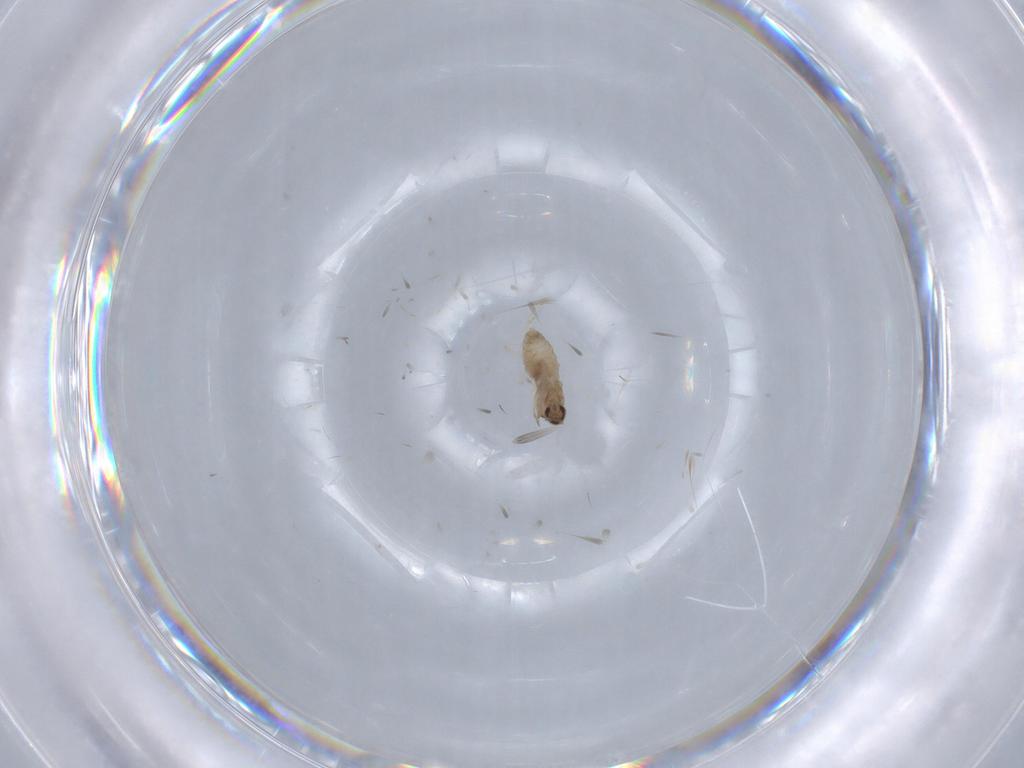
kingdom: Animalia
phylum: Arthropoda
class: Insecta
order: Diptera
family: Cecidomyiidae
